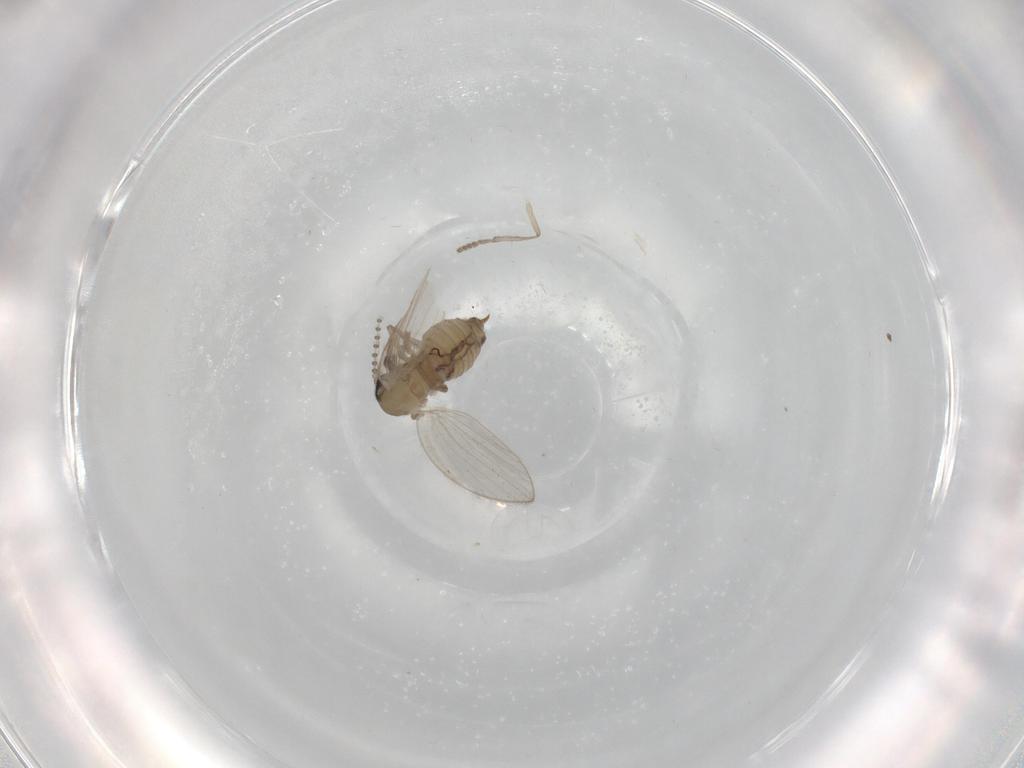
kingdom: Animalia
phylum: Arthropoda
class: Insecta
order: Diptera
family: Psychodidae
